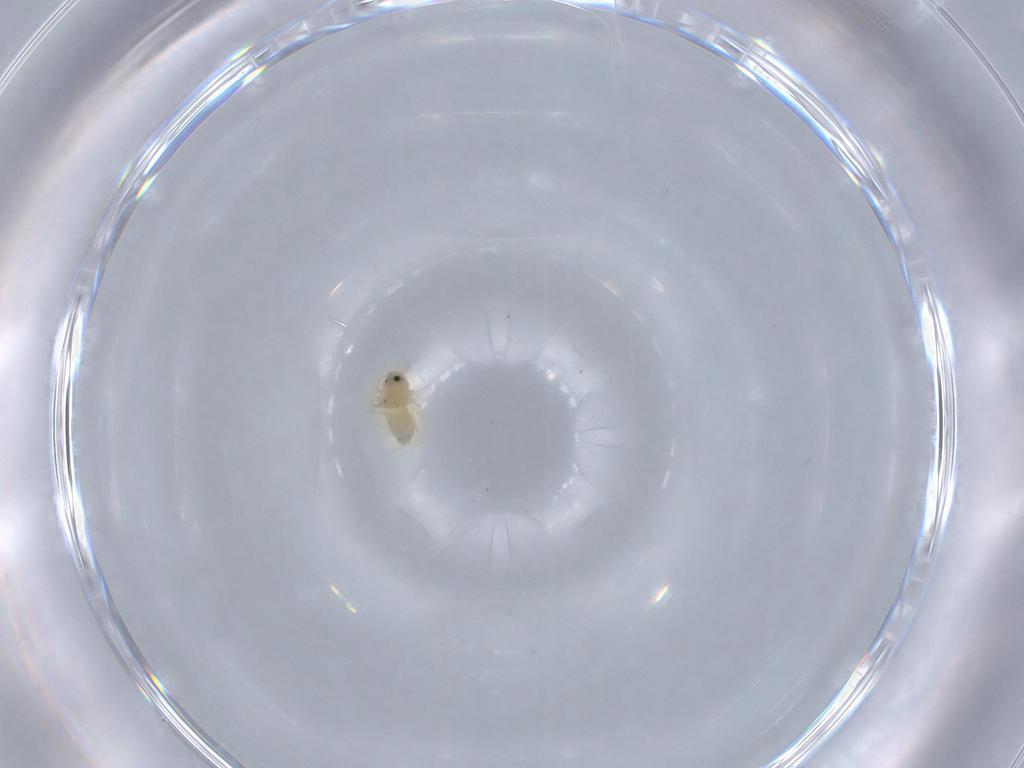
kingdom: Animalia
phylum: Arthropoda
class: Insecta
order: Hemiptera
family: Aleyrodidae
